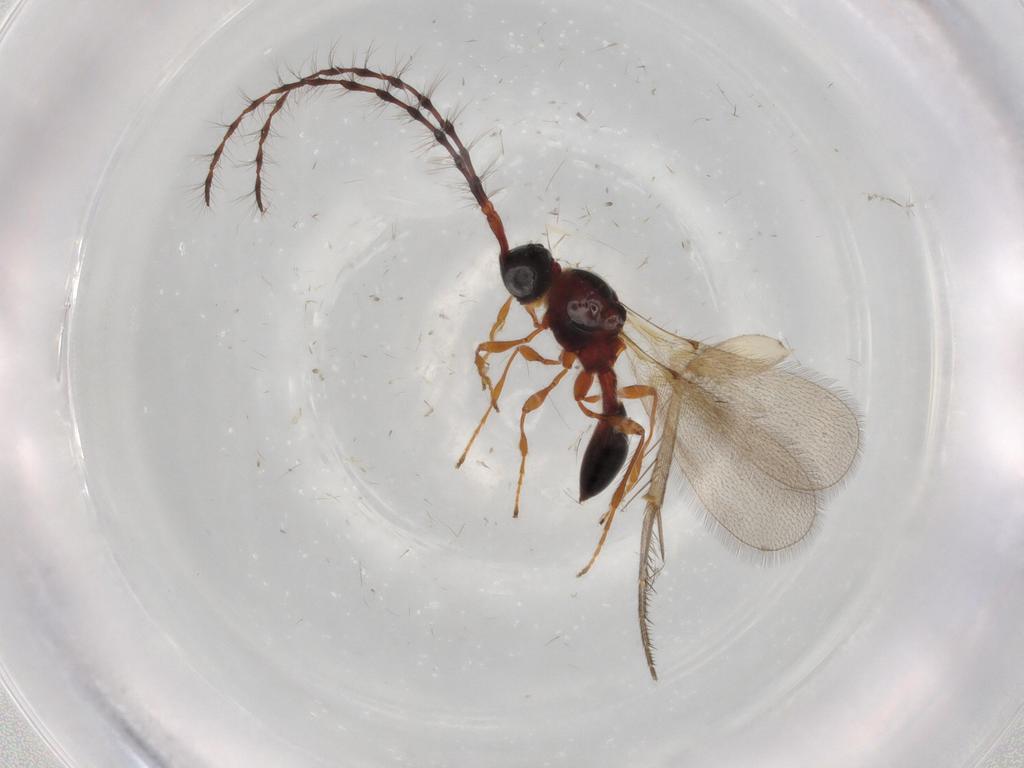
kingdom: Animalia
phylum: Arthropoda
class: Insecta
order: Hymenoptera
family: Diapriidae
